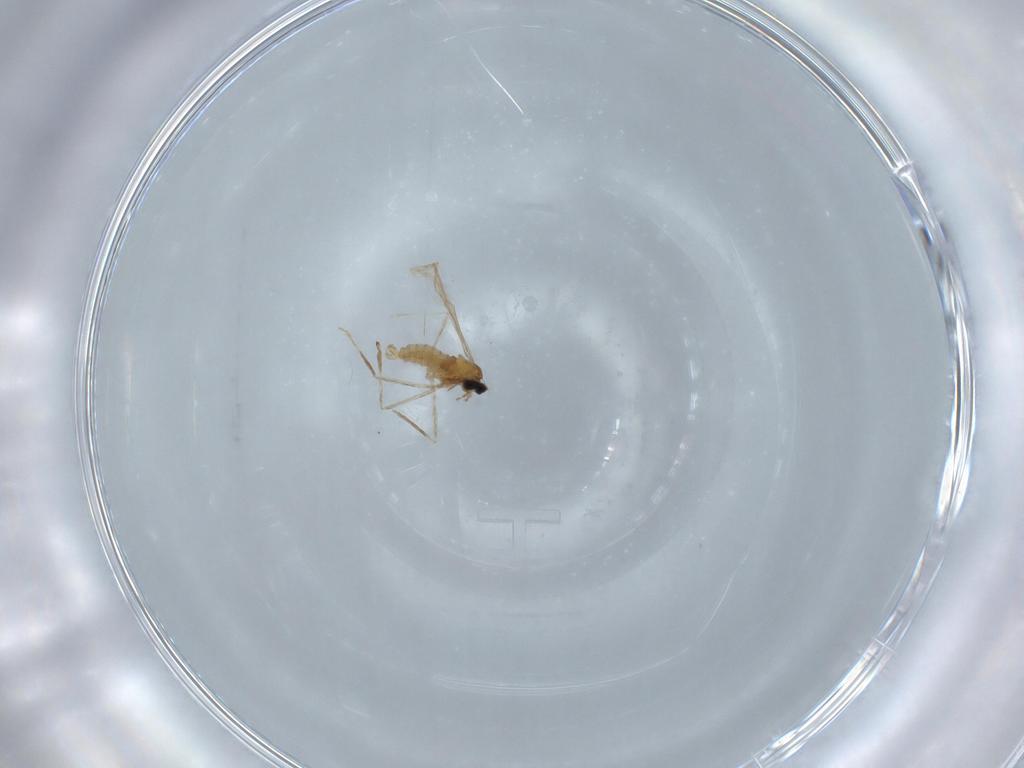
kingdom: Animalia
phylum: Arthropoda
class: Insecta
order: Diptera
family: Cecidomyiidae
